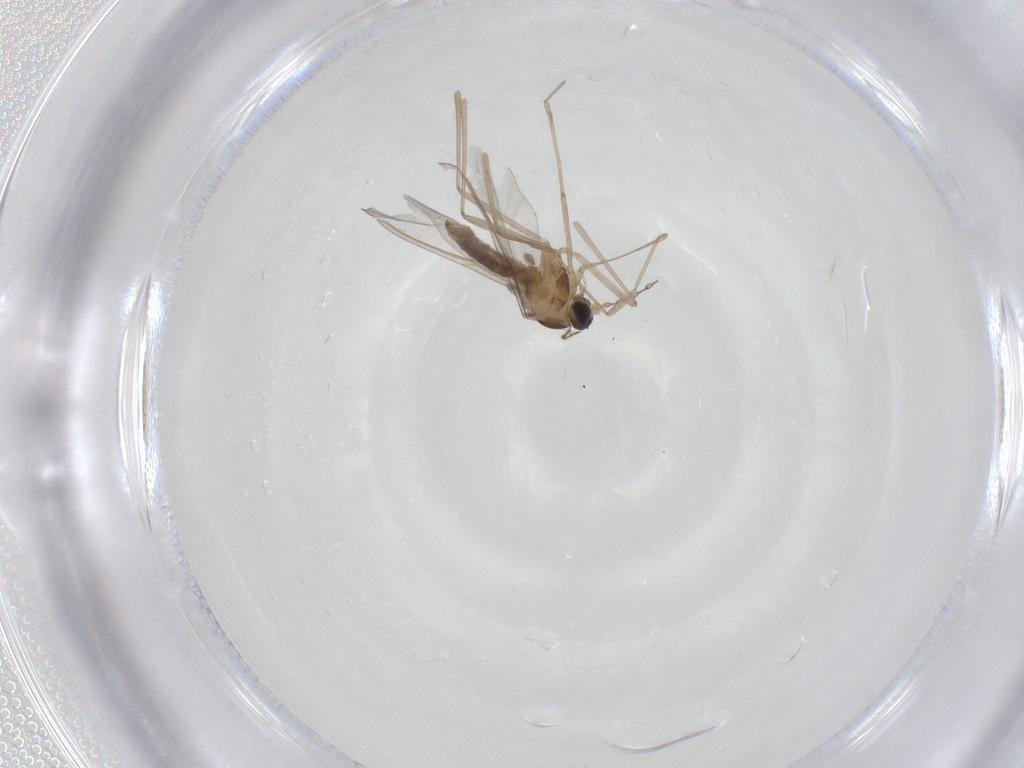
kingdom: Animalia
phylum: Arthropoda
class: Insecta
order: Diptera
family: Cecidomyiidae
